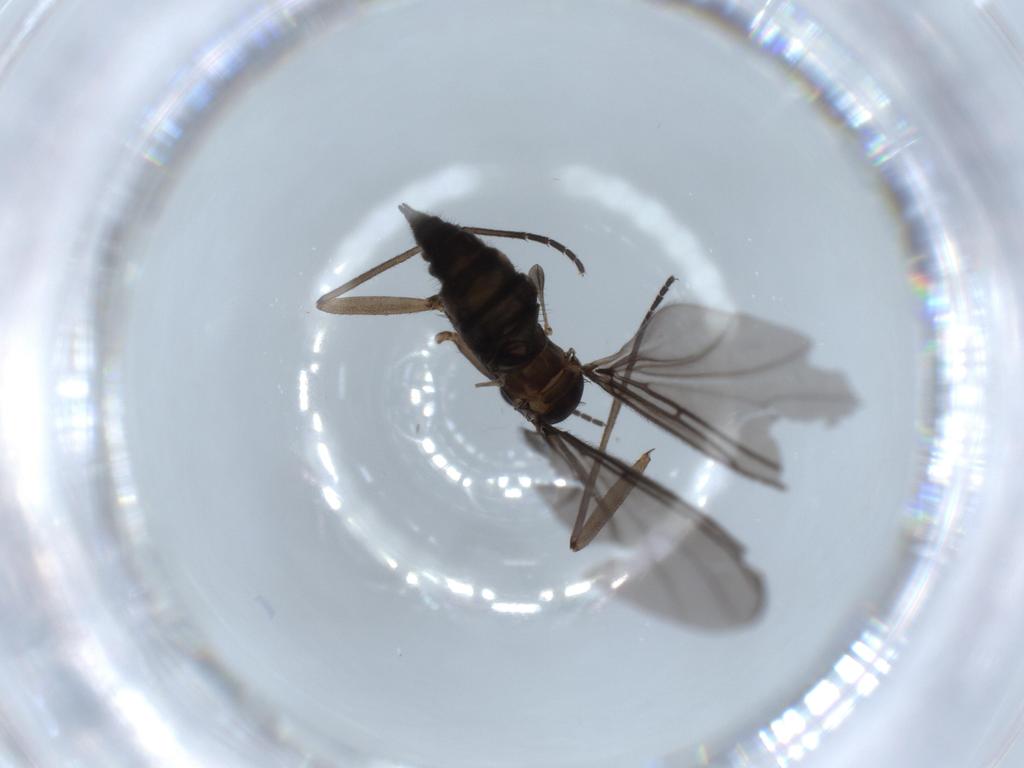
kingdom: Animalia
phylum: Arthropoda
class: Insecta
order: Diptera
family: Sciaridae
